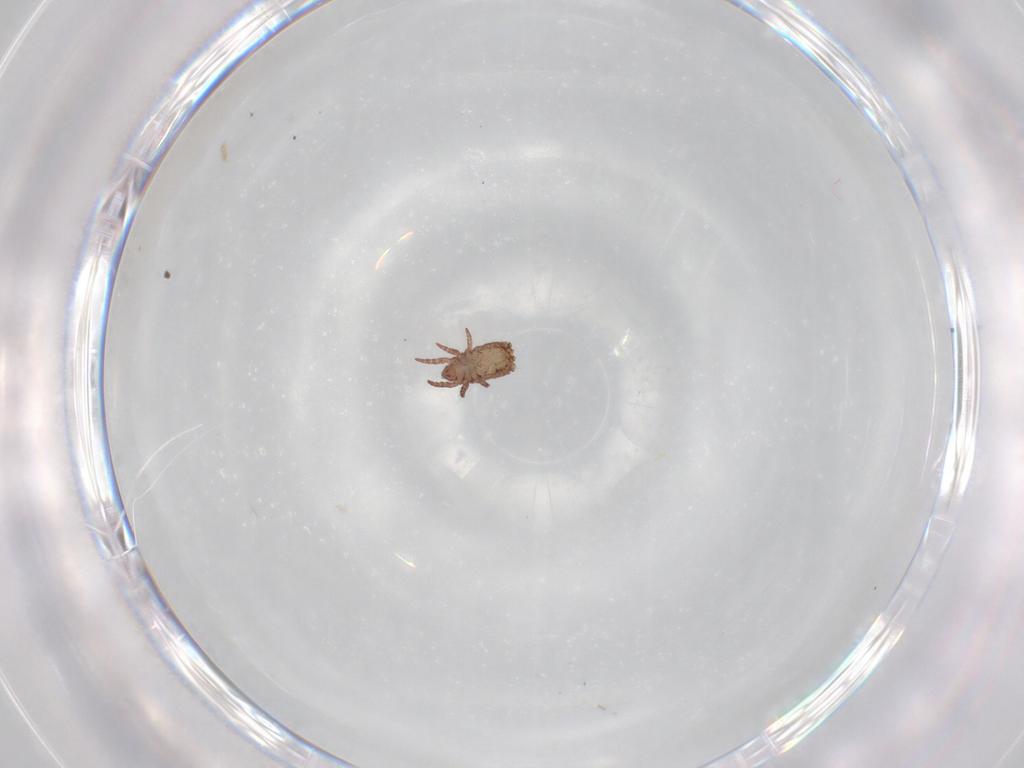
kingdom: Animalia
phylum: Arthropoda
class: Arachnida
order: Sarcoptiformes
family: Phenopelopidae
